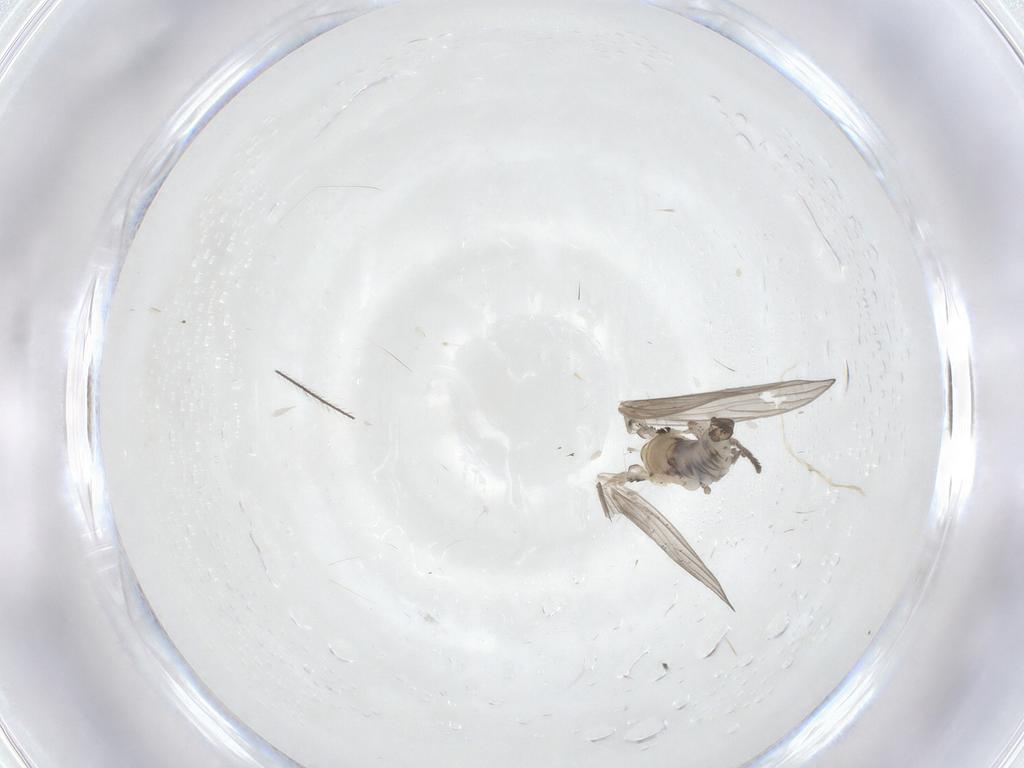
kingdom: Animalia
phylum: Arthropoda
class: Insecta
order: Diptera
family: Psychodidae
